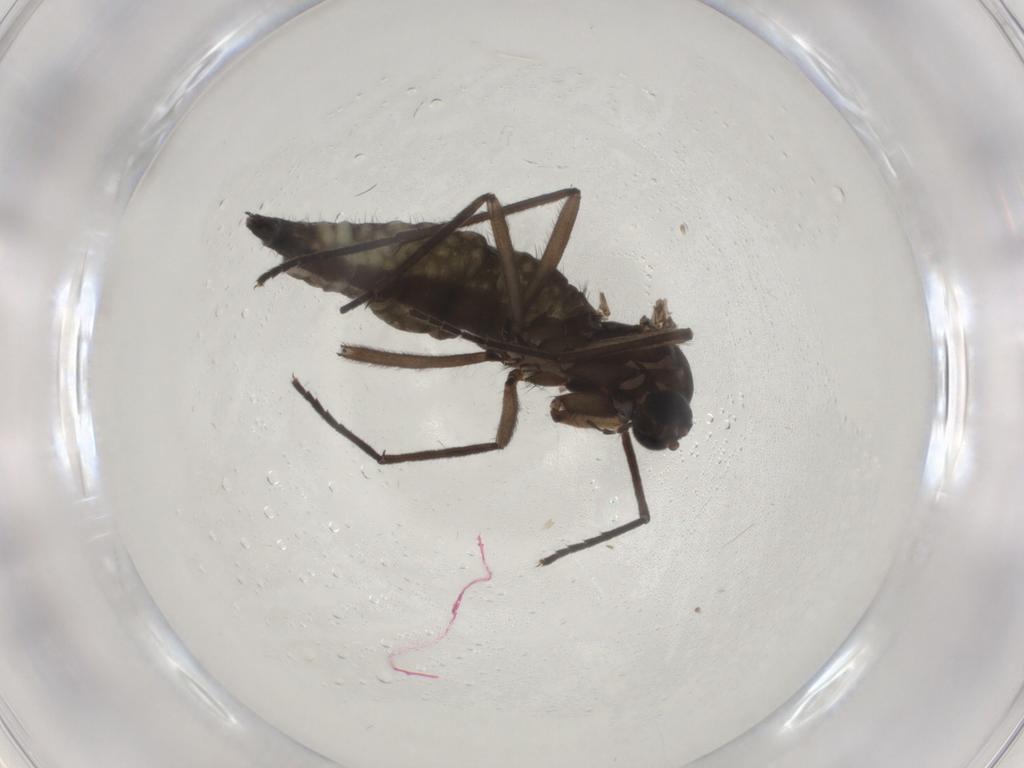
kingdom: Animalia
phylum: Arthropoda
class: Insecta
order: Diptera
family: Sciaridae
